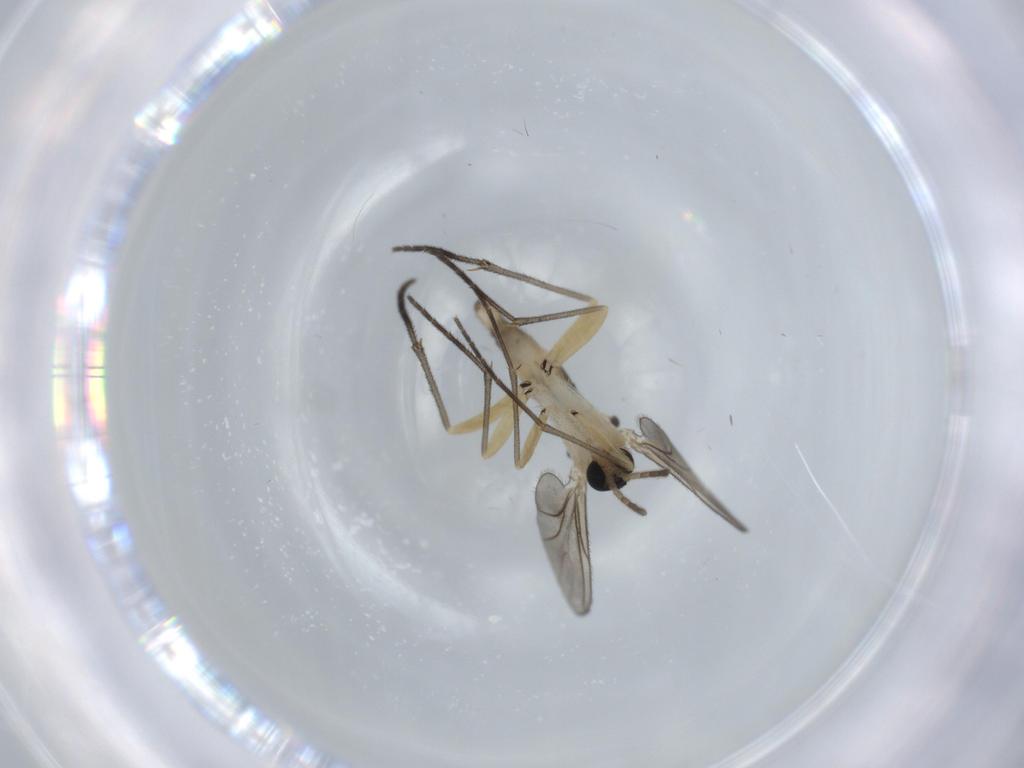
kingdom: Animalia
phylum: Arthropoda
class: Insecta
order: Diptera
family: Sciaridae
